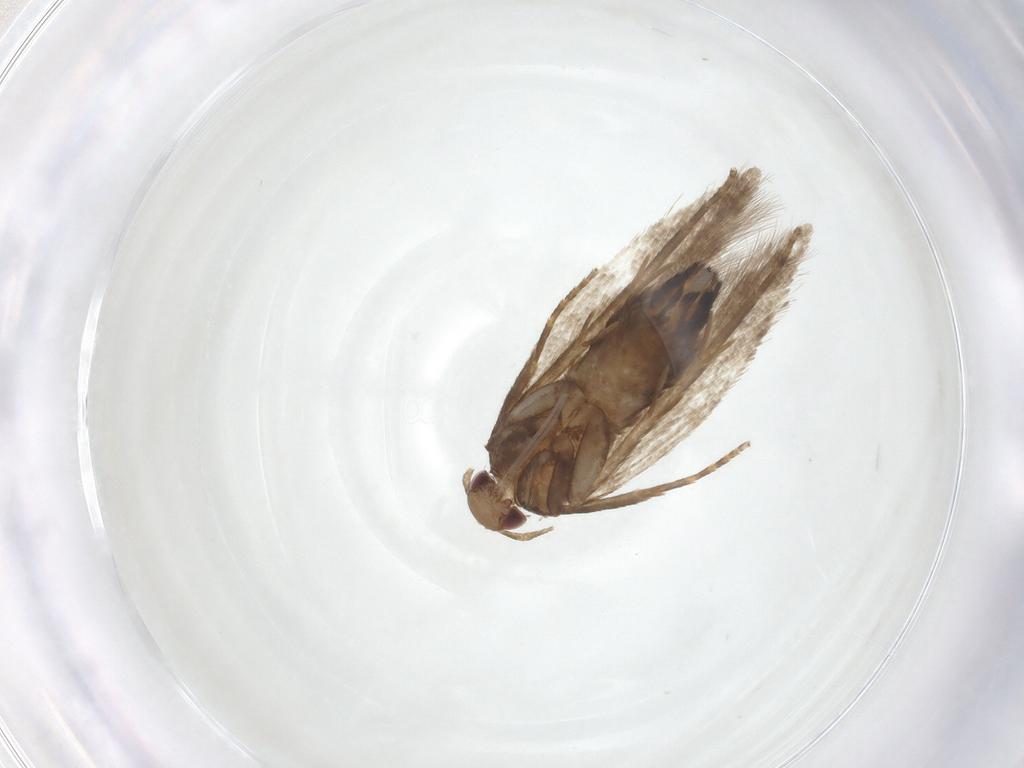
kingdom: Animalia
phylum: Arthropoda
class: Insecta
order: Lepidoptera
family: Gelechiidae
